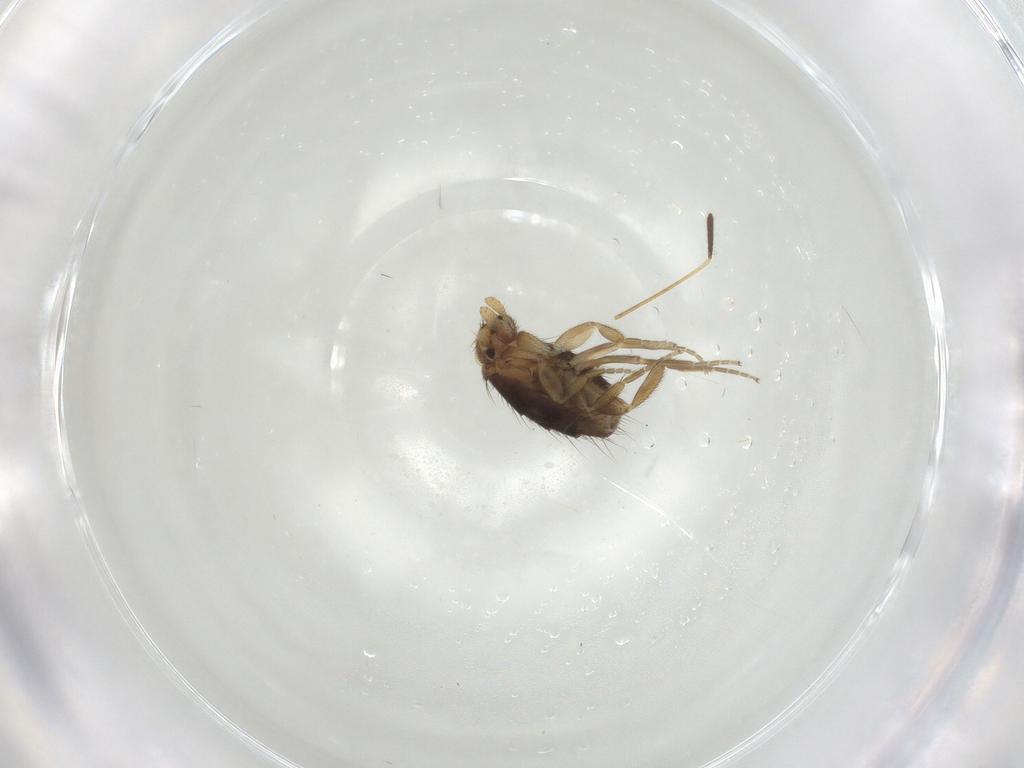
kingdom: Animalia
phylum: Arthropoda
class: Insecta
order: Diptera
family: Phoridae
